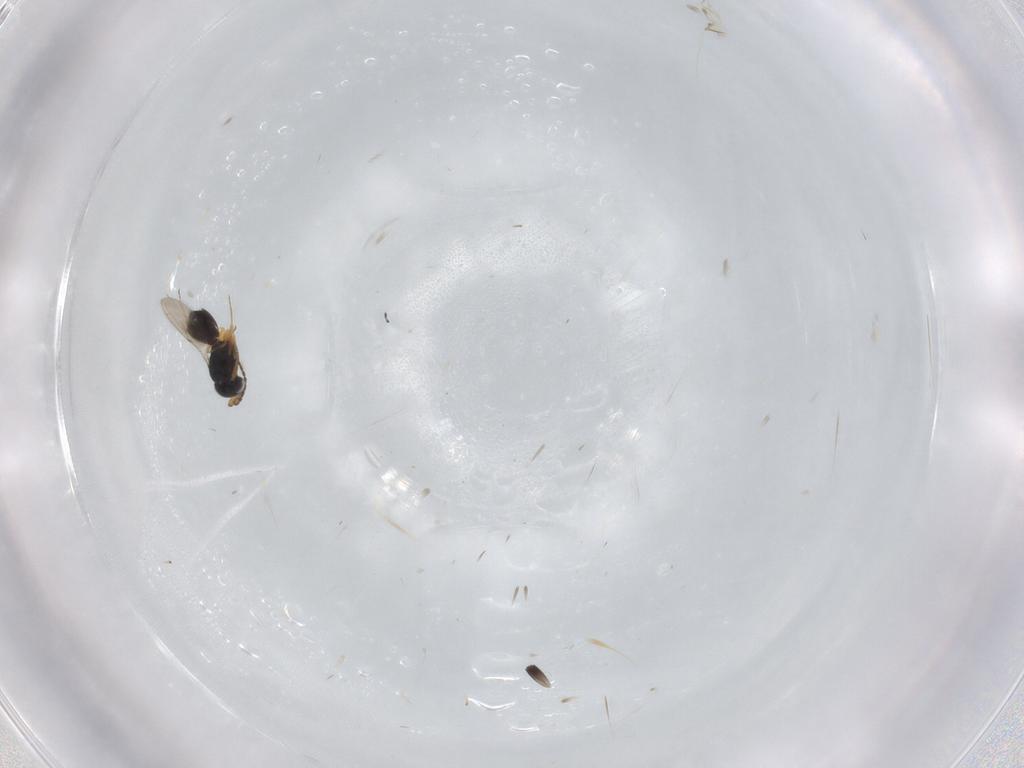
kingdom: Animalia
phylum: Arthropoda
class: Insecta
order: Hymenoptera
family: Scelionidae
